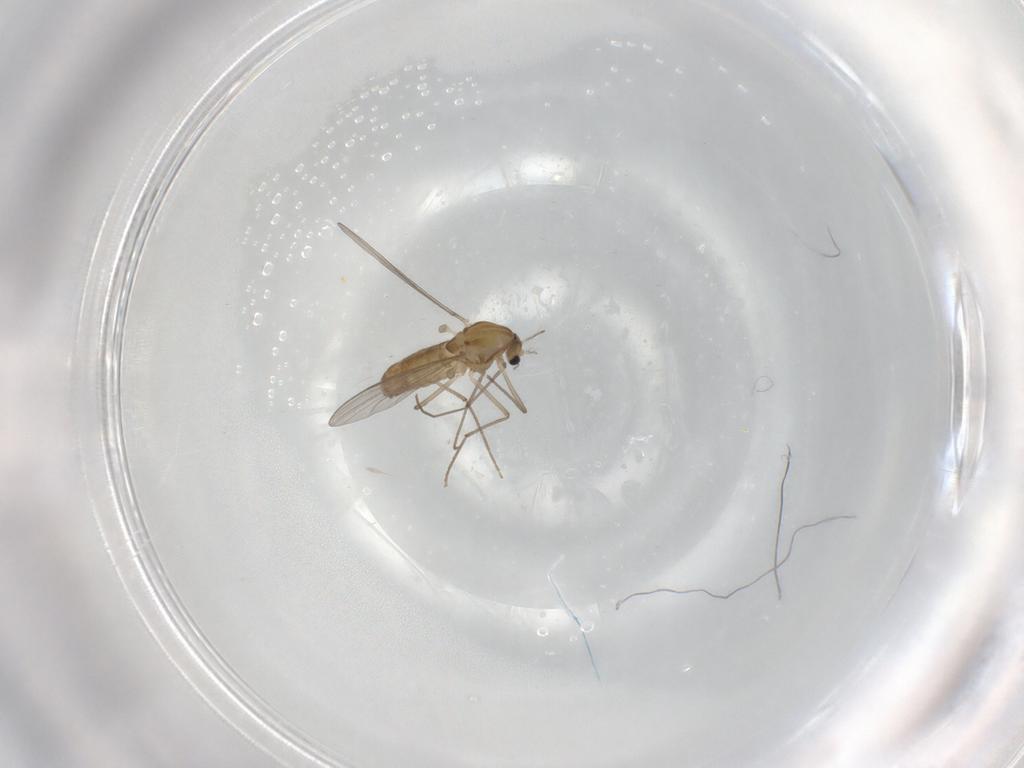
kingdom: Animalia
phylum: Arthropoda
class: Insecta
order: Diptera
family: Chironomidae
